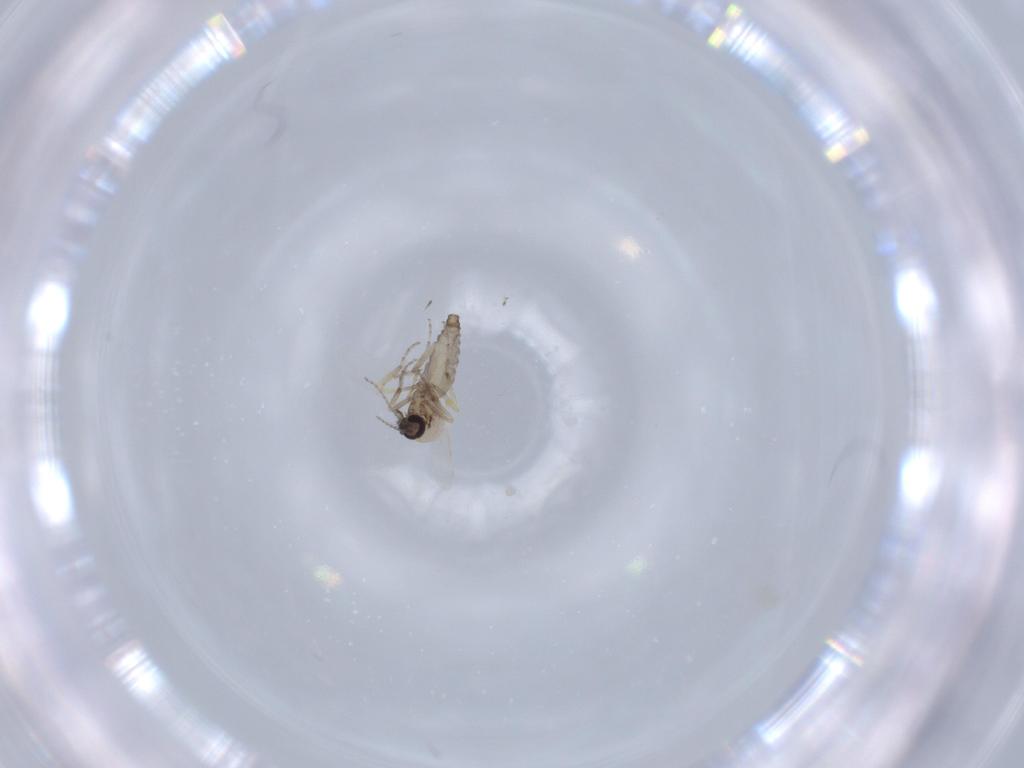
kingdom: Animalia
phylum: Arthropoda
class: Insecta
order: Diptera
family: Ceratopogonidae
